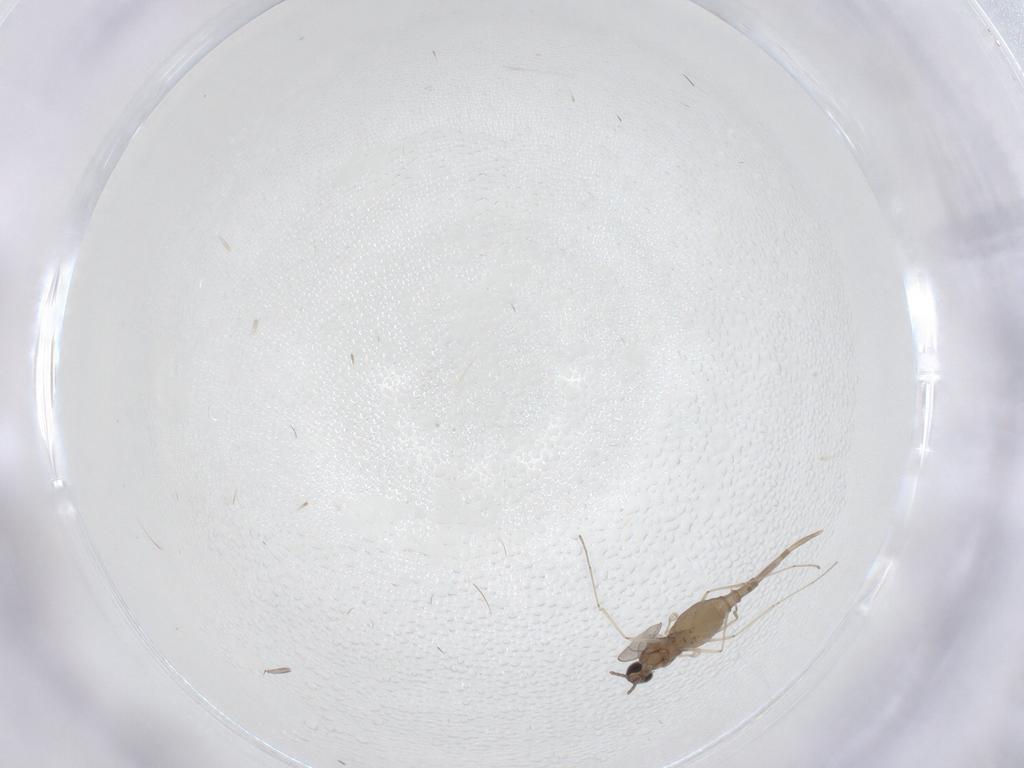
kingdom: Animalia
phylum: Arthropoda
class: Insecta
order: Diptera
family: Cecidomyiidae
